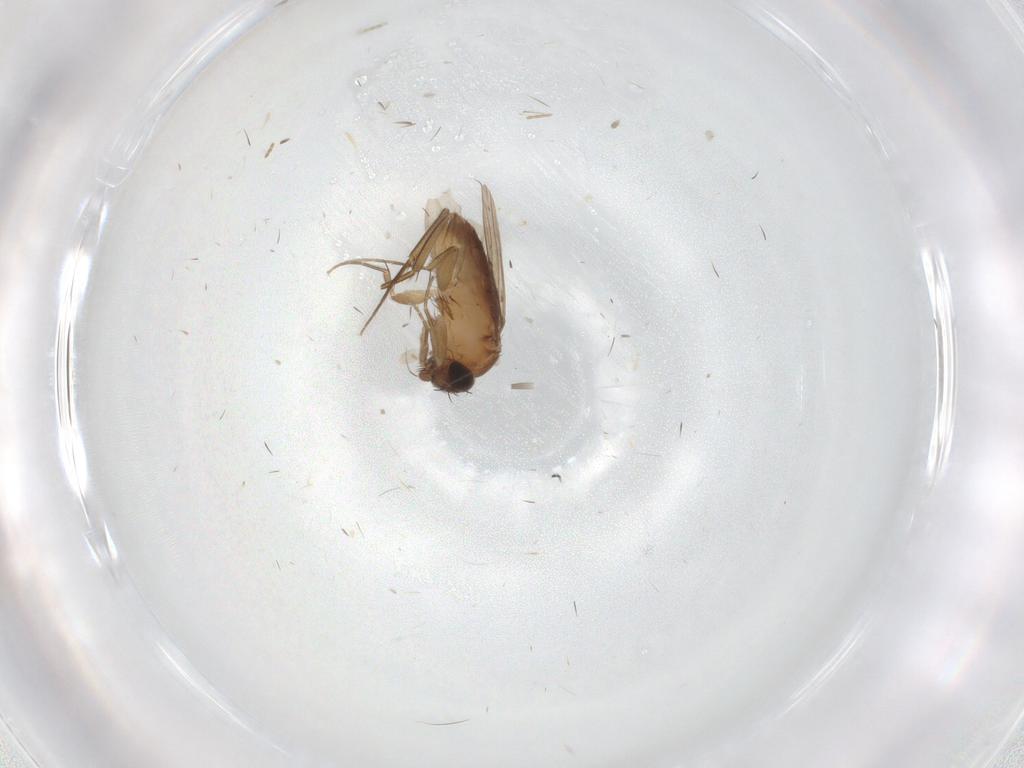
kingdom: Animalia
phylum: Arthropoda
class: Insecta
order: Diptera
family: Phoridae
